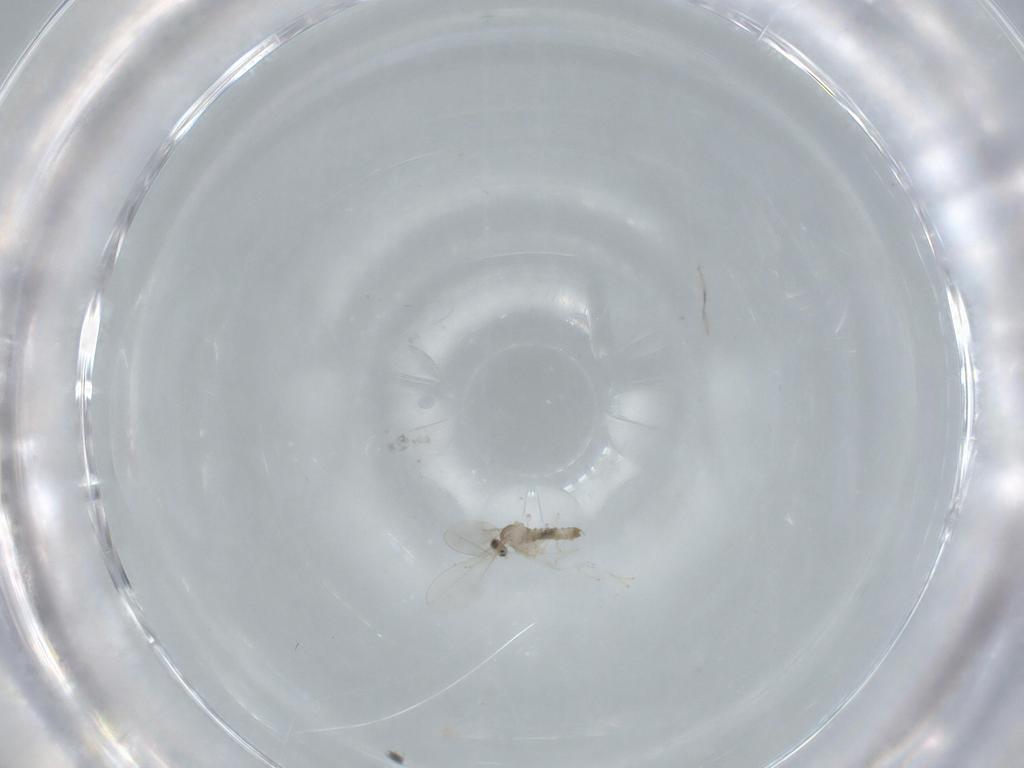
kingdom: Animalia
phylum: Arthropoda
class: Insecta
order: Diptera
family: Cecidomyiidae
